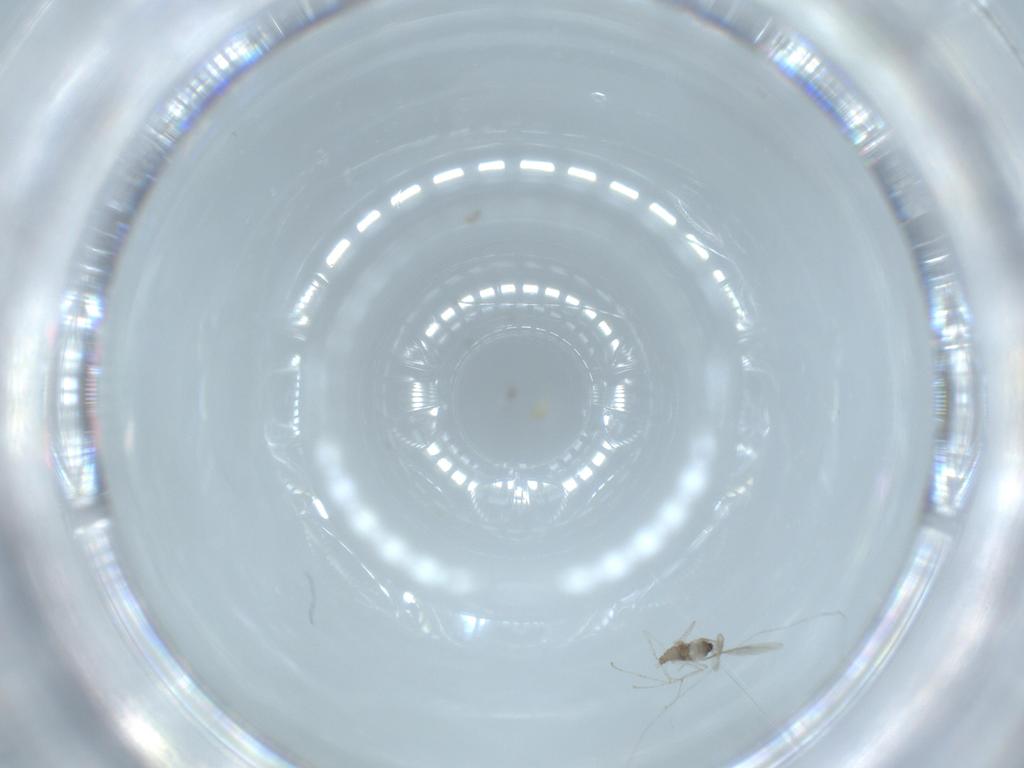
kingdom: Animalia
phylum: Arthropoda
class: Insecta
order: Diptera
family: Cecidomyiidae
